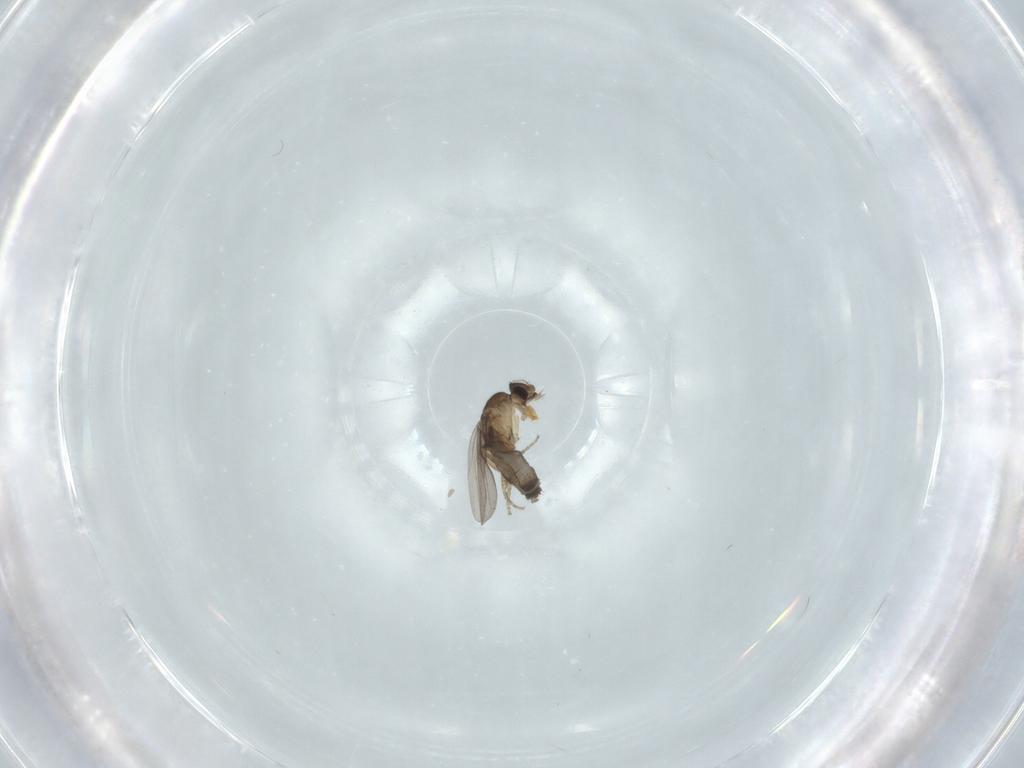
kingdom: Animalia
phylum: Arthropoda
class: Insecta
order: Diptera
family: Phoridae
